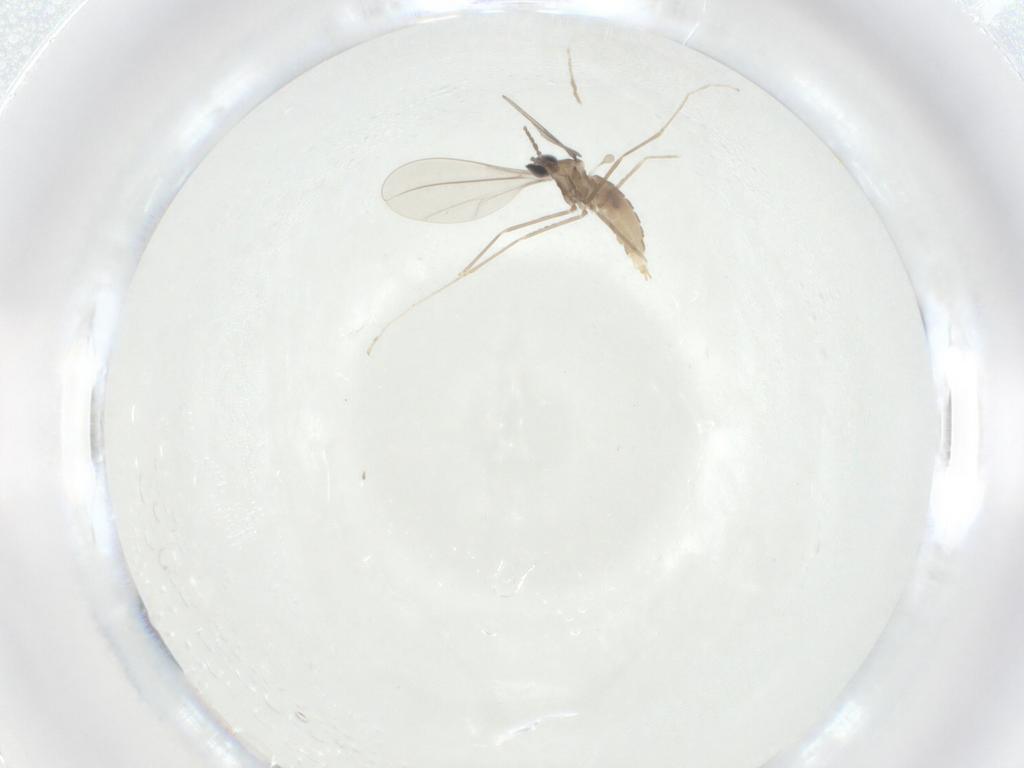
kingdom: Animalia
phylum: Arthropoda
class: Insecta
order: Diptera
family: Cecidomyiidae
